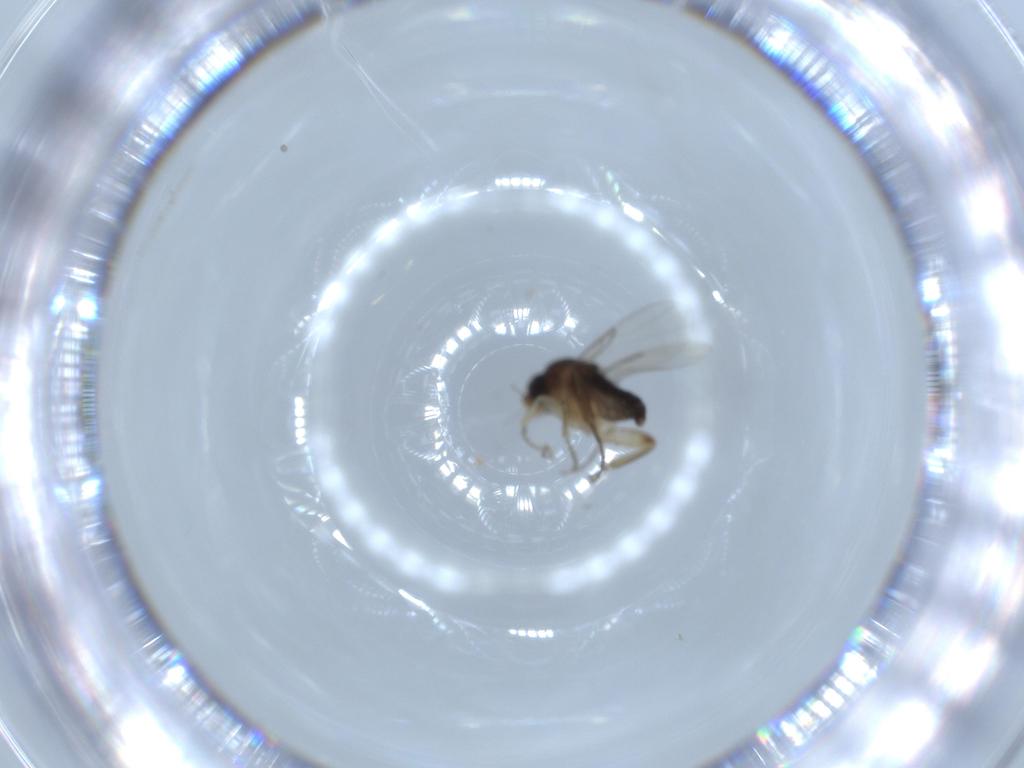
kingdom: Animalia
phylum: Arthropoda
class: Insecta
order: Diptera
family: Phoridae
